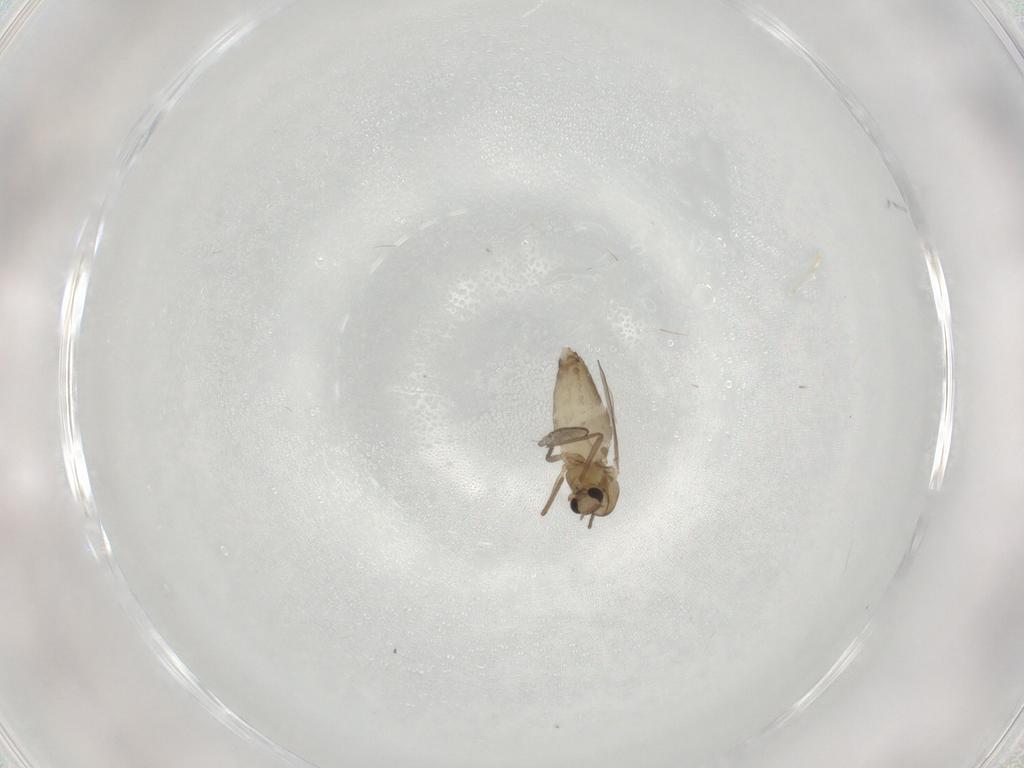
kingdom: Animalia
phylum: Arthropoda
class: Insecta
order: Diptera
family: Chironomidae
